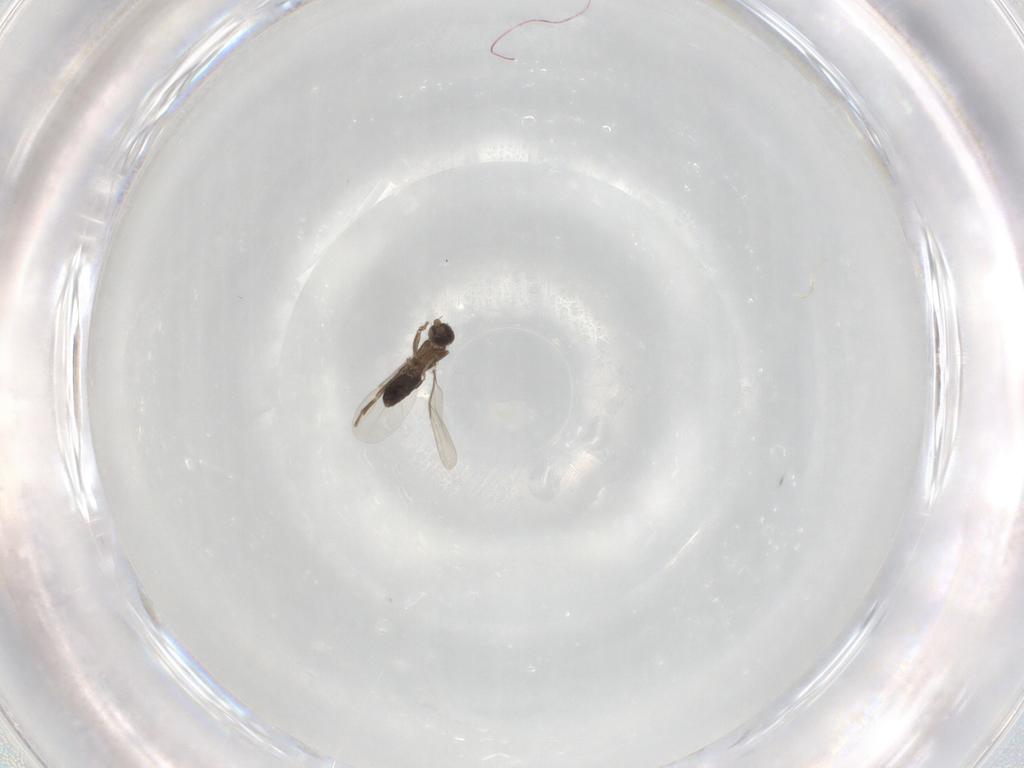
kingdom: Animalia
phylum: Arthropoda
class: Insecta
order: Diptera
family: Phoridae
